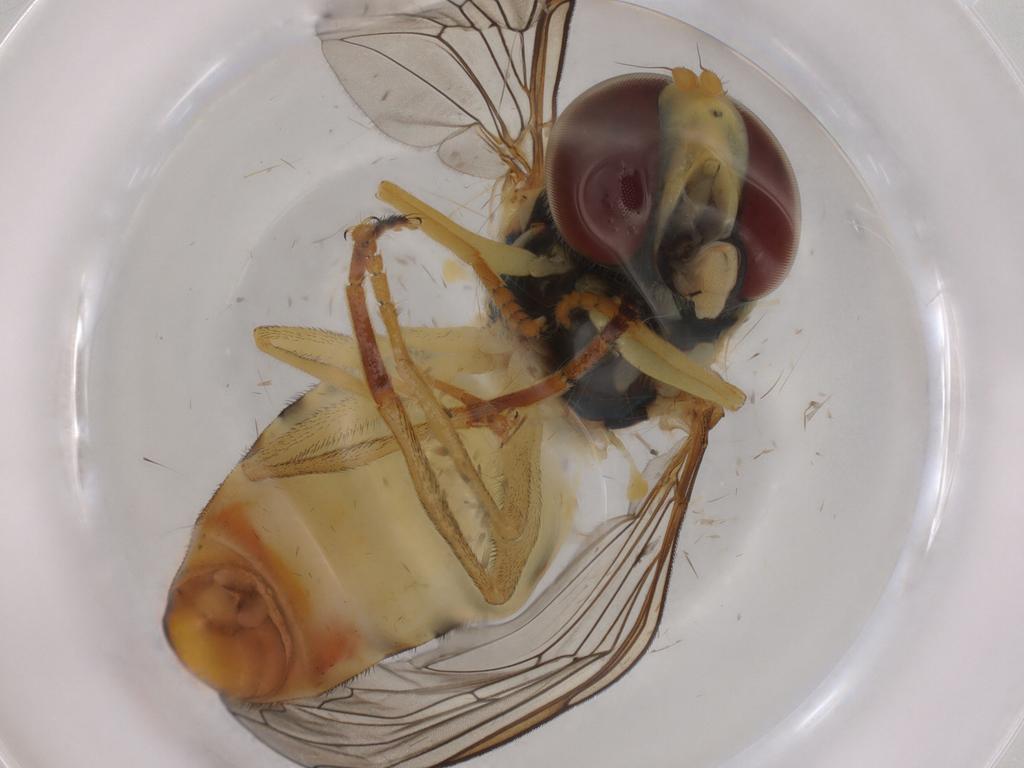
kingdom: Animalia
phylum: Arthropoda
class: Insecta
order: Diptera
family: Syrphidae
